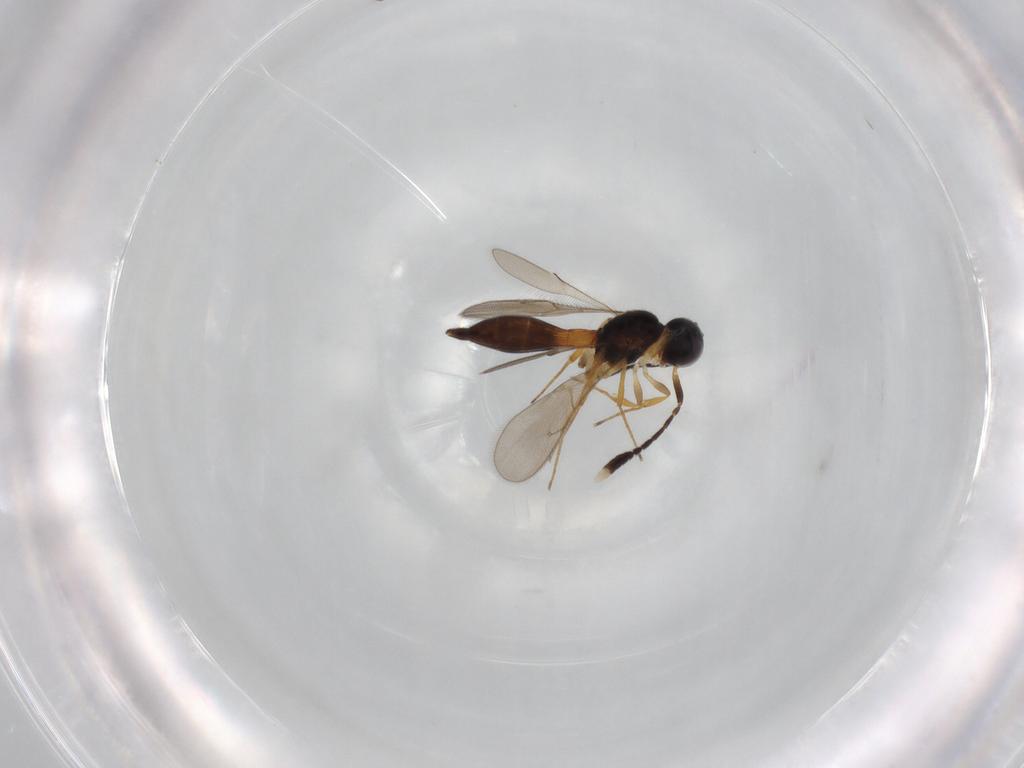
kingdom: Animalia
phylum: Arthropoda
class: Insecta
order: Hymenoptera
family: Scelionidae
